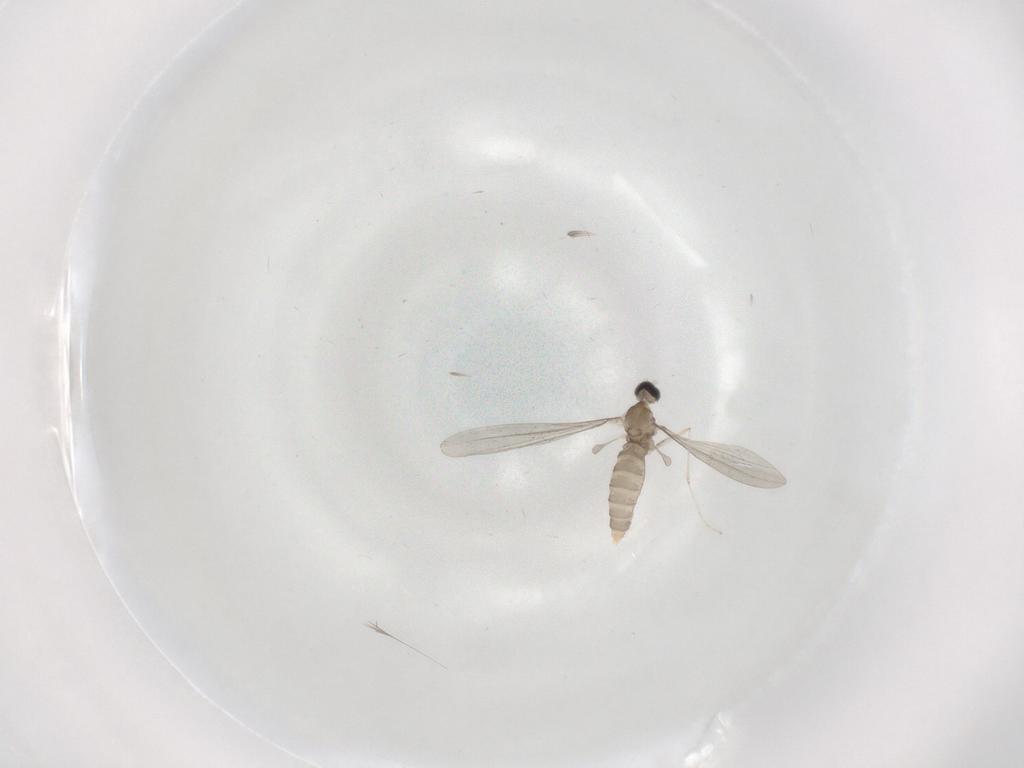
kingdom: Animalia
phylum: Arthropoda
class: Insecta
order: Diptera
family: Cecidomyiidae
